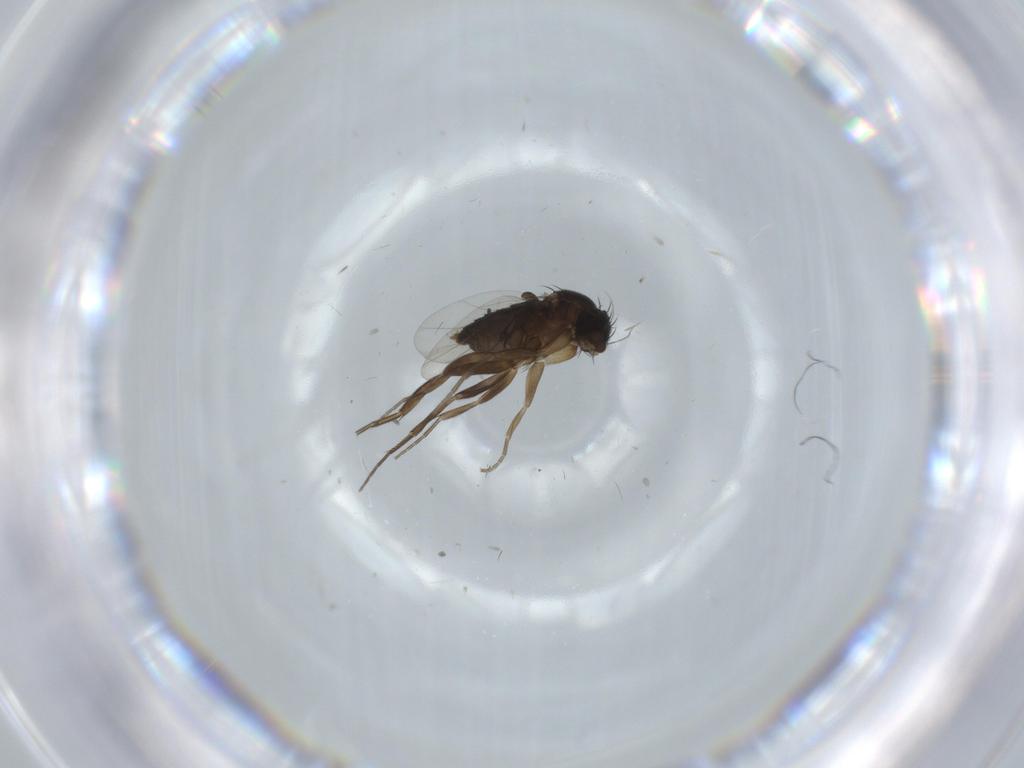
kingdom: Animalia
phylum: Arthropoda
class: Insecta
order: Diptera
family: Phoridae
